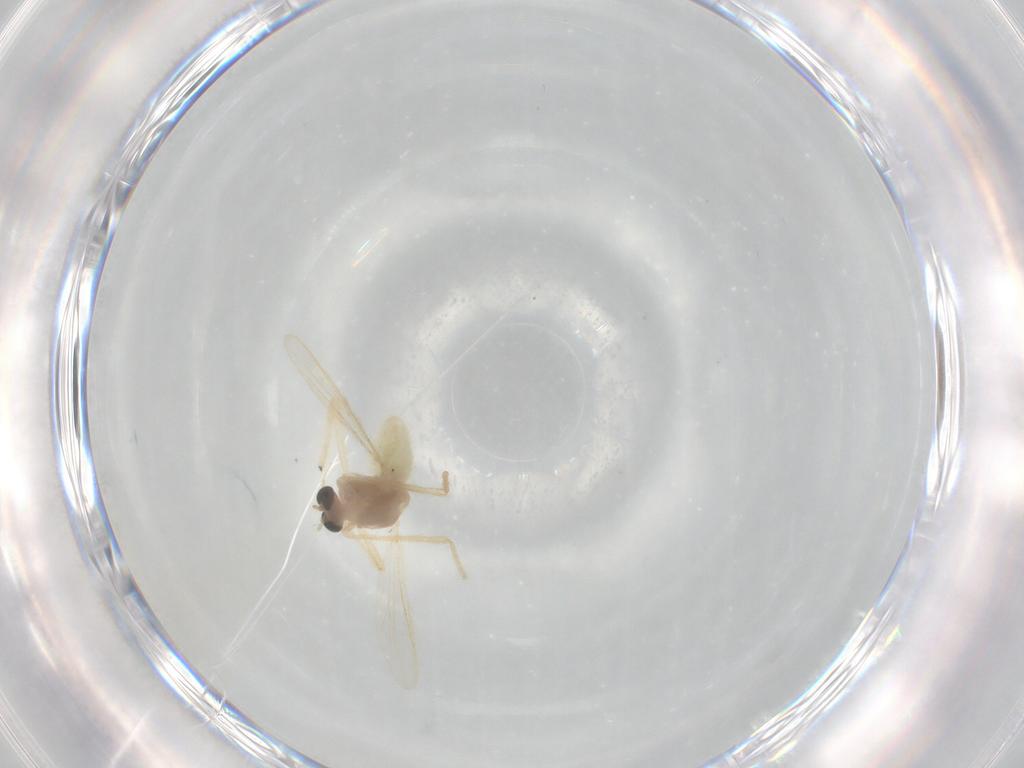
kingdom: Animalia
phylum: Arthropoda
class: Insecta
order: Diptera
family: Chironomidae
